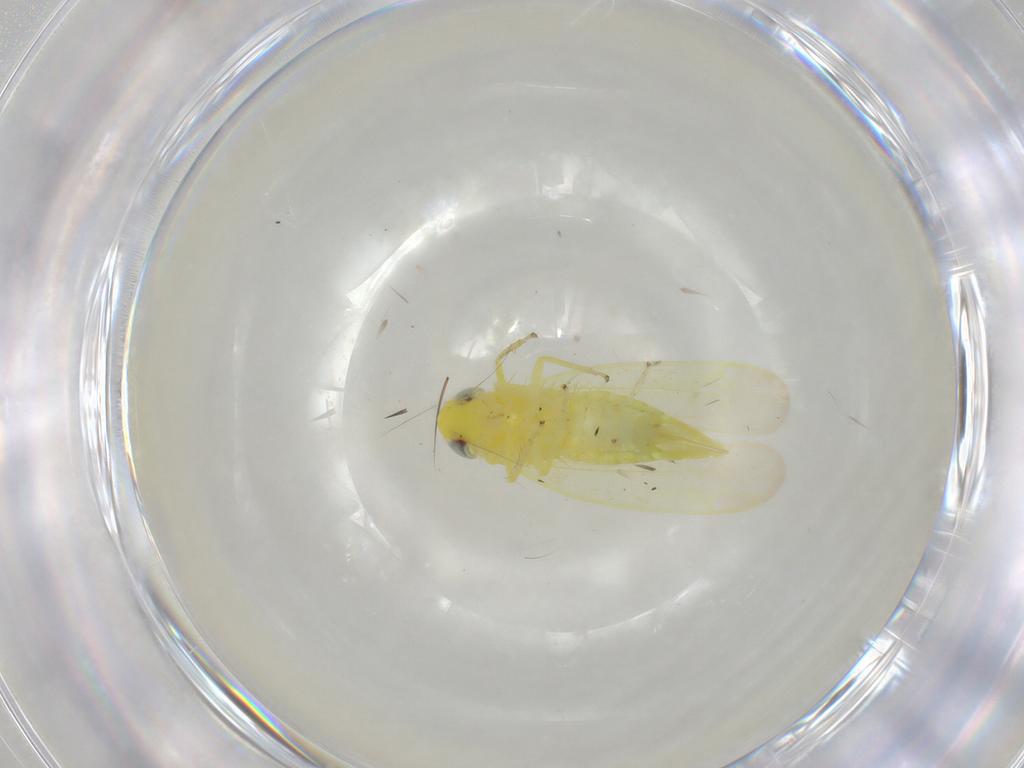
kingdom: Animalia
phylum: Arthropoda
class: Insecta
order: Hemiptera
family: Cicadellidae
